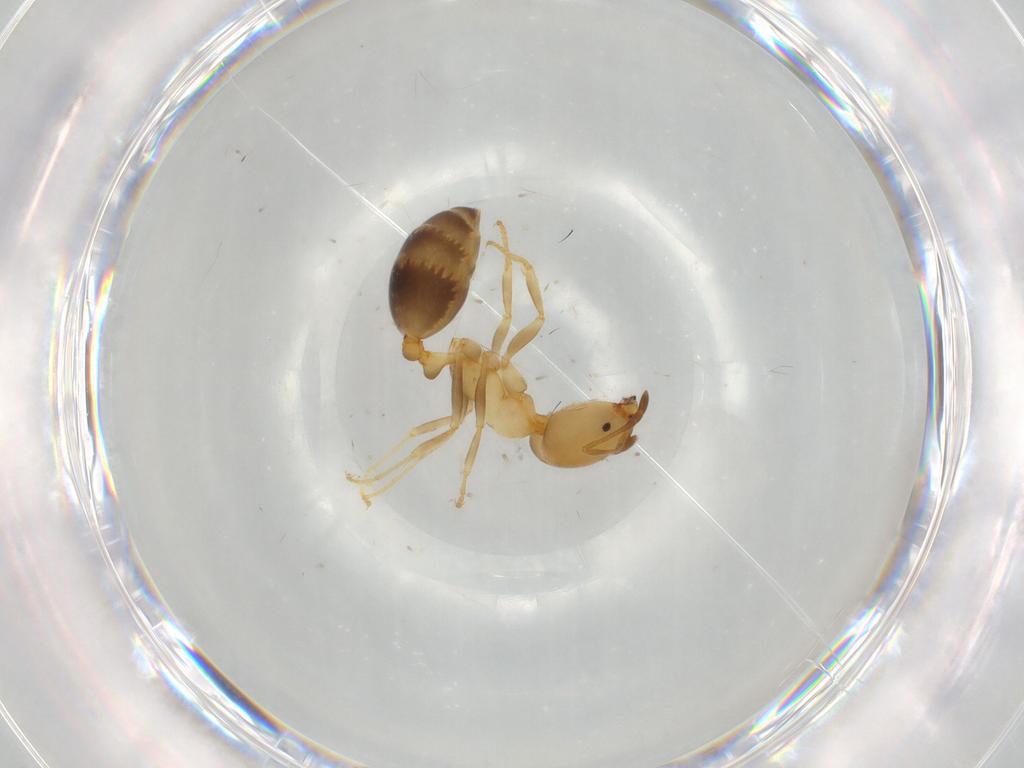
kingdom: Animalia
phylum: Arthropoda
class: Insecta
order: Hymenoptera
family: Formicidae
